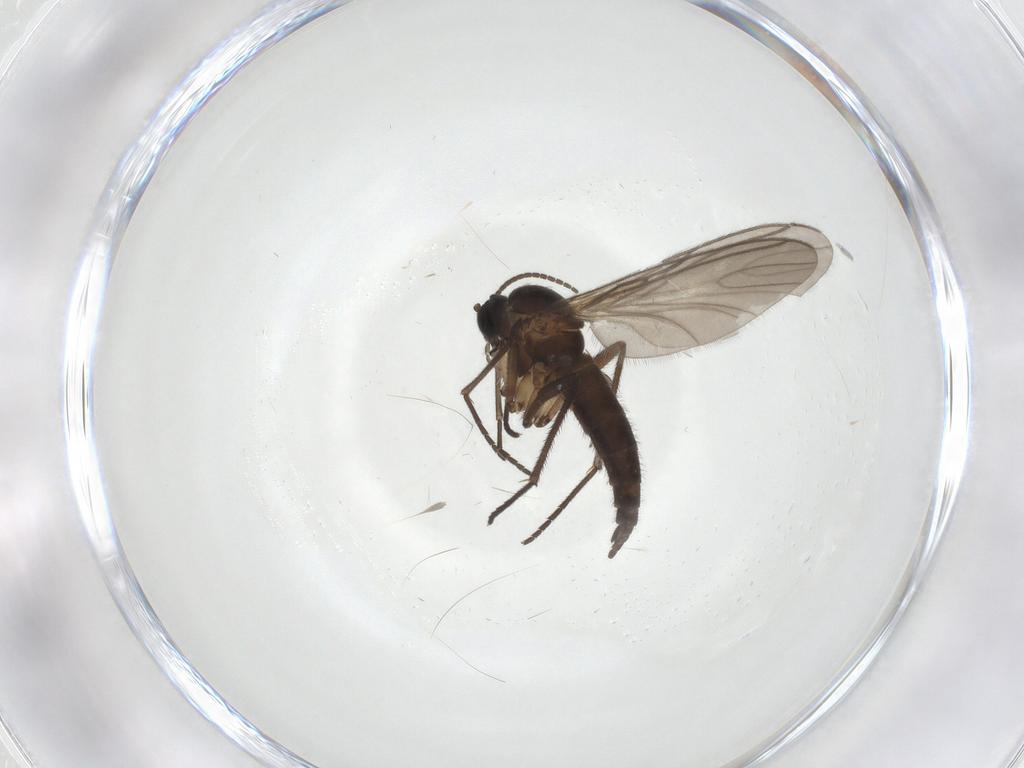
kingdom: Animalia
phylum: Arthropoda
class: Insecta
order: Diptera
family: Sciaridae
